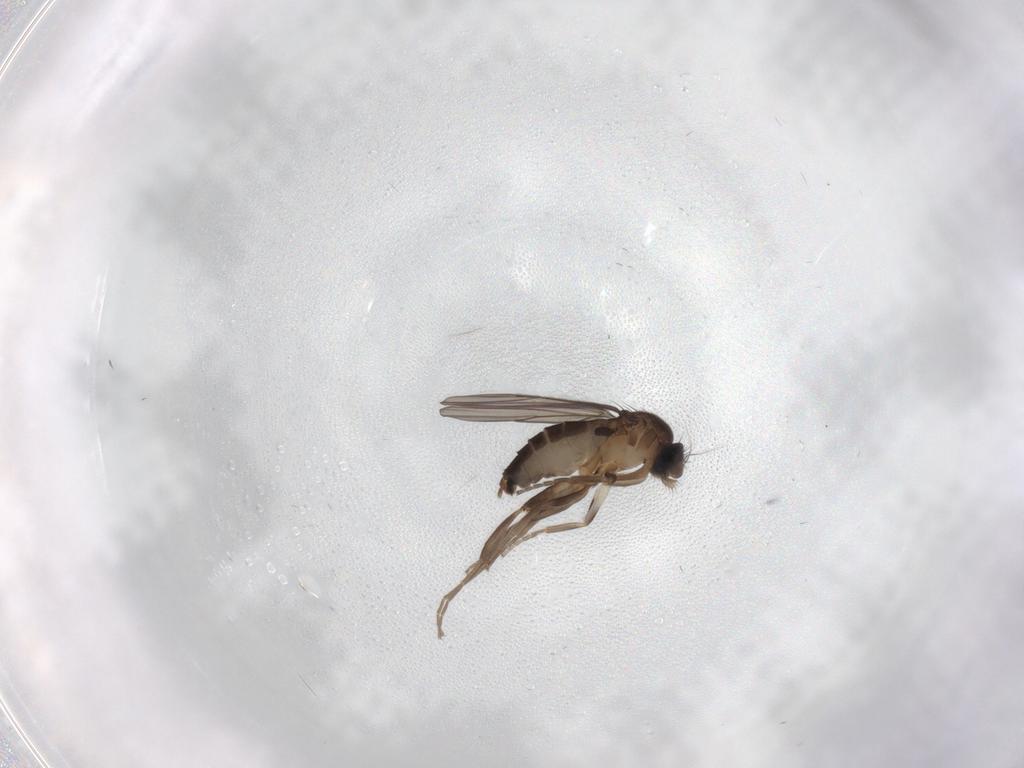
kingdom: Animalia
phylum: Arthropoda
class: Insecta
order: Diptera
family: Phoridae
